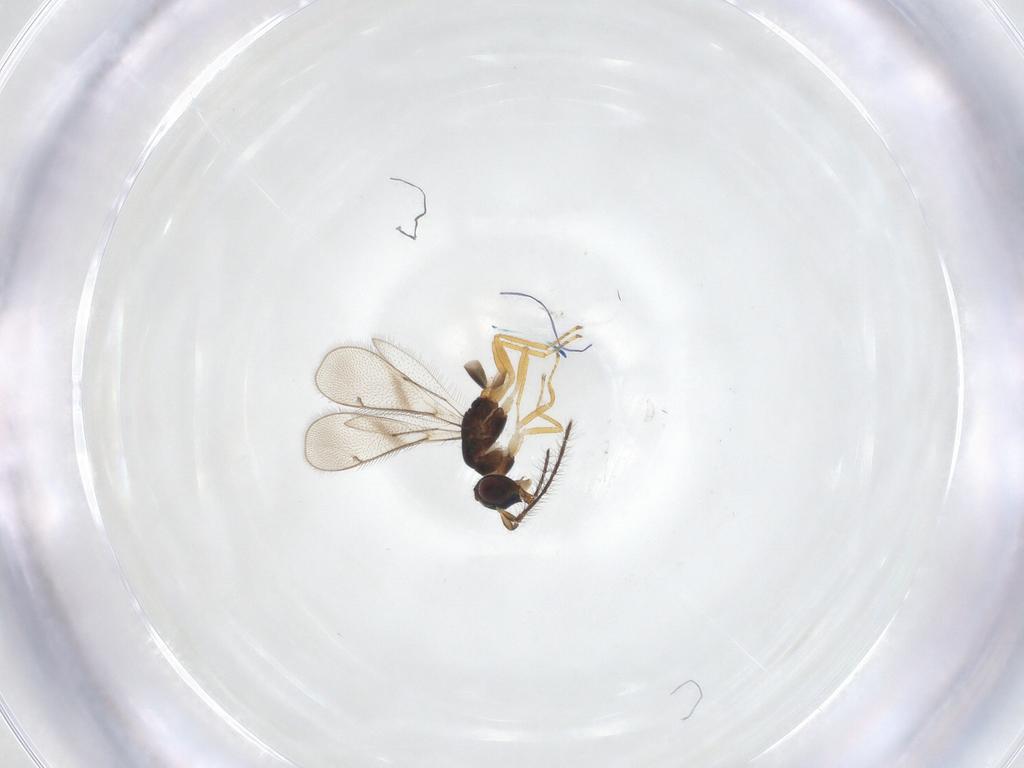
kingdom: Animalia
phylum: Arthropoda
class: Insecta
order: Hymenoptera
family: Eulophidae
